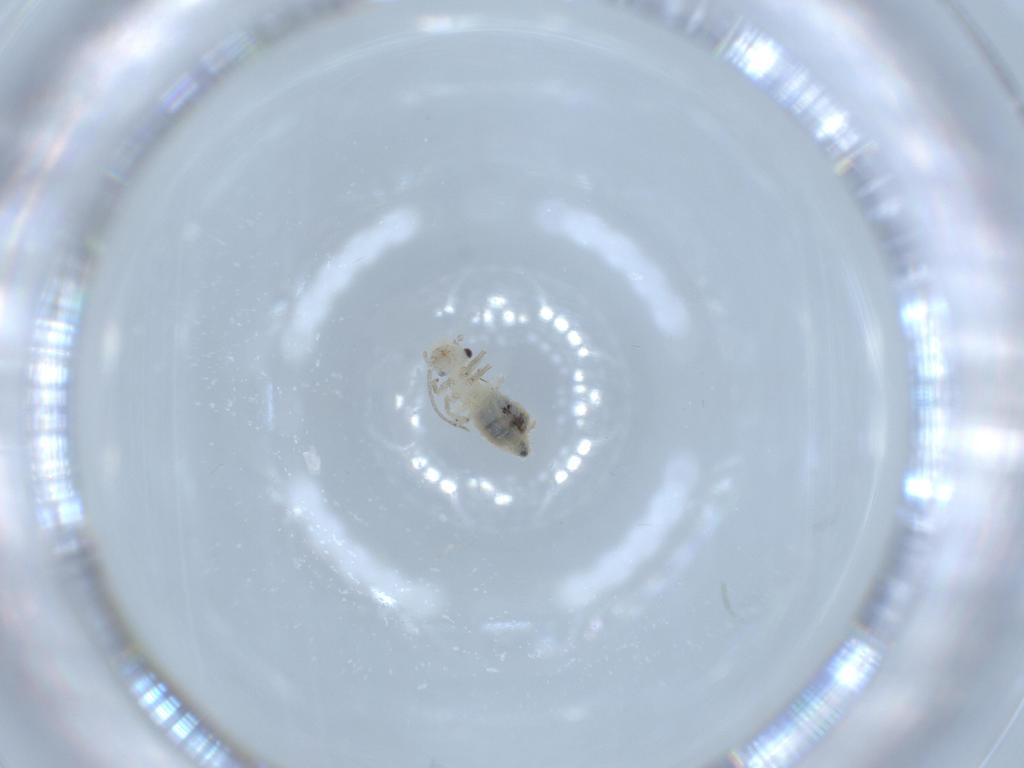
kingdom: Animalia
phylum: Arthropoda
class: Insecta
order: Psocodea
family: Caeciliusidae
